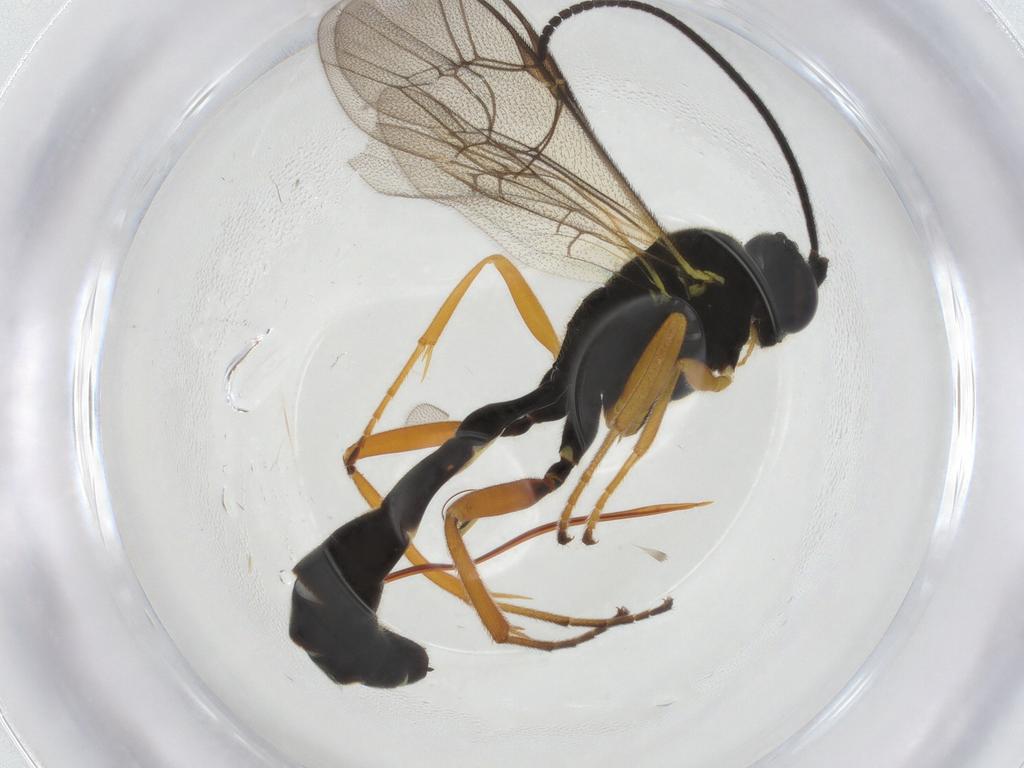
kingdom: Animalia
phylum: Arthropoda
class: Insecta
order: Hymenoptera
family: Ichneumonidae
